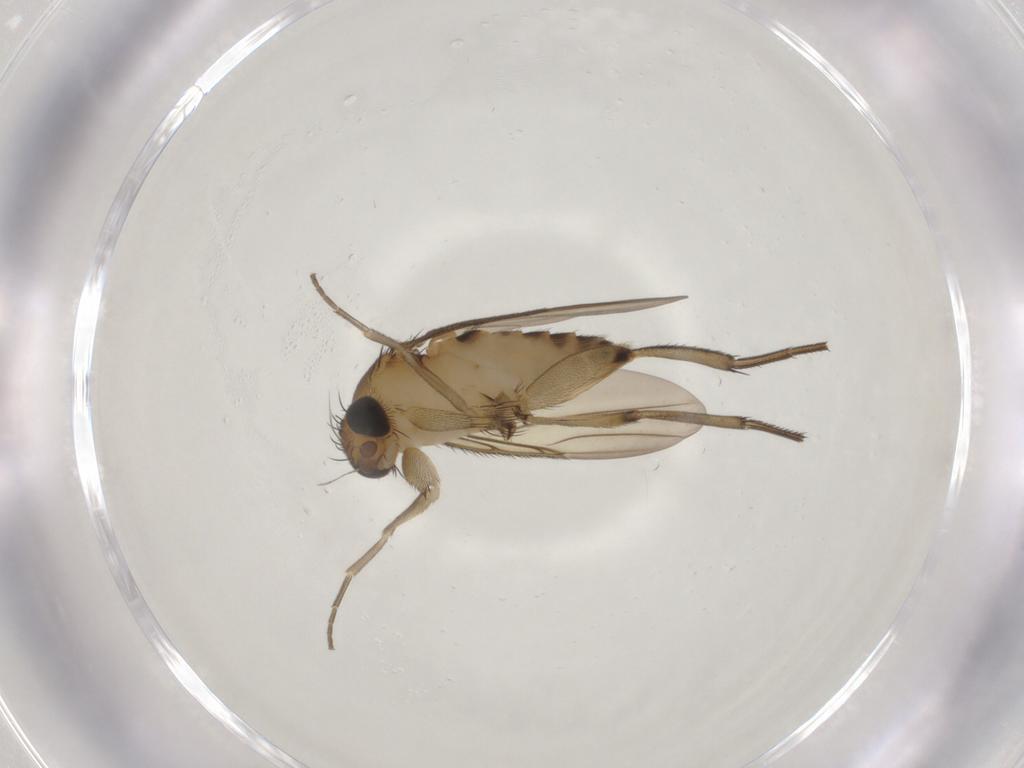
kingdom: Animalia
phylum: Arthropoda
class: Insecta
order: Diptera
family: Phoridae
